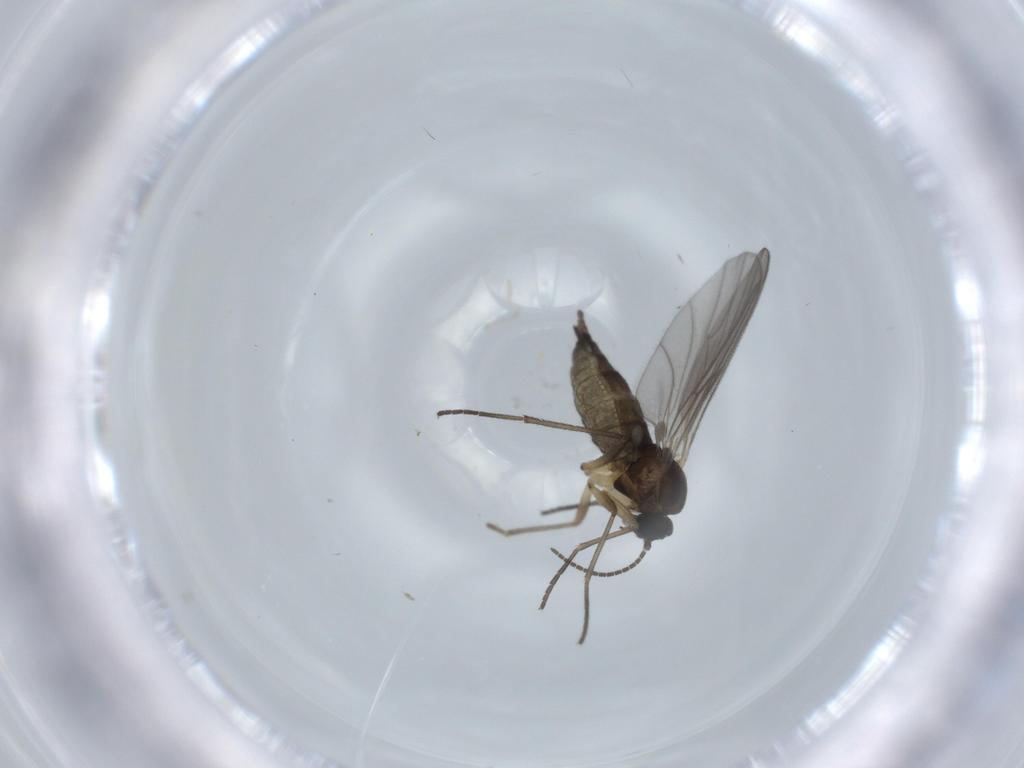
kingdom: Animalia
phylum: Arthropoda
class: Insecta
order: Diptera
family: Sciaridae
